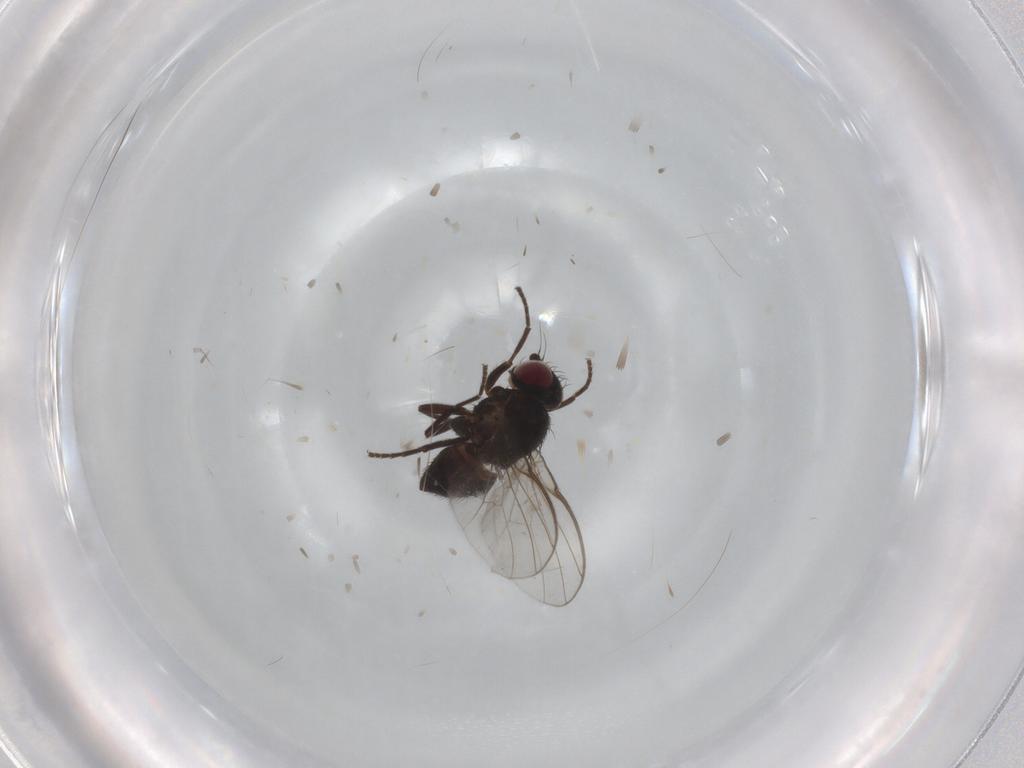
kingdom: Animalia
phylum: Arthropoda
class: Insecta
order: Diptera
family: Agromyzidae
